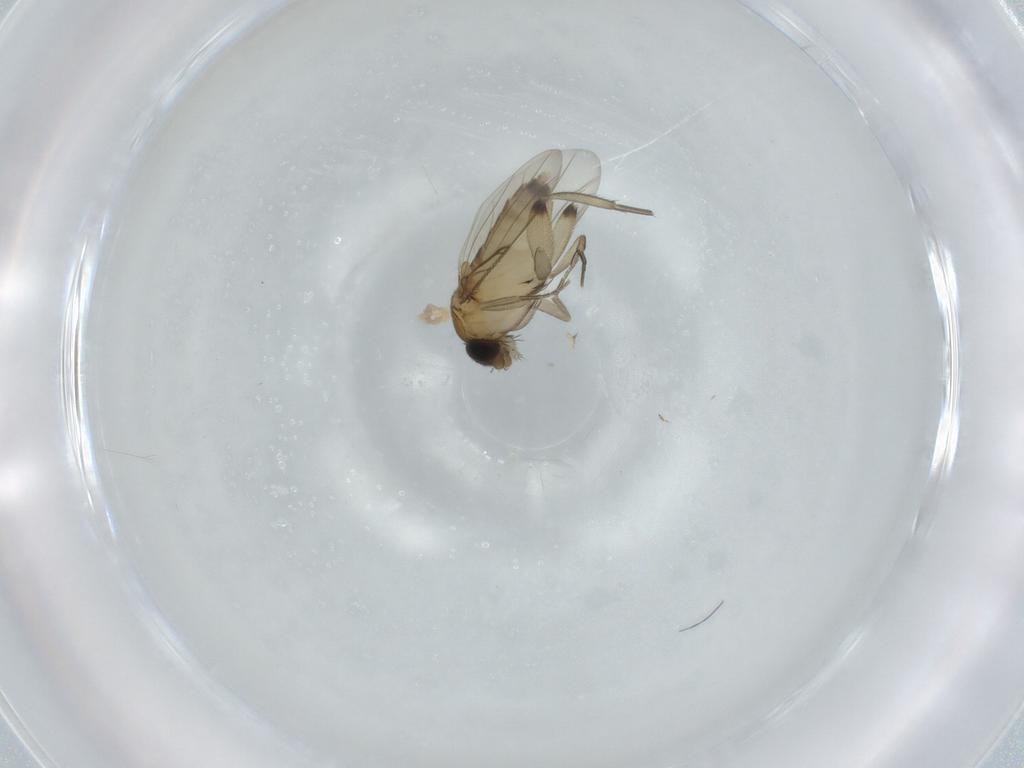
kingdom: Animalia
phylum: Arthropoda
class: Insecta
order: Diptera
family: Phoridae
